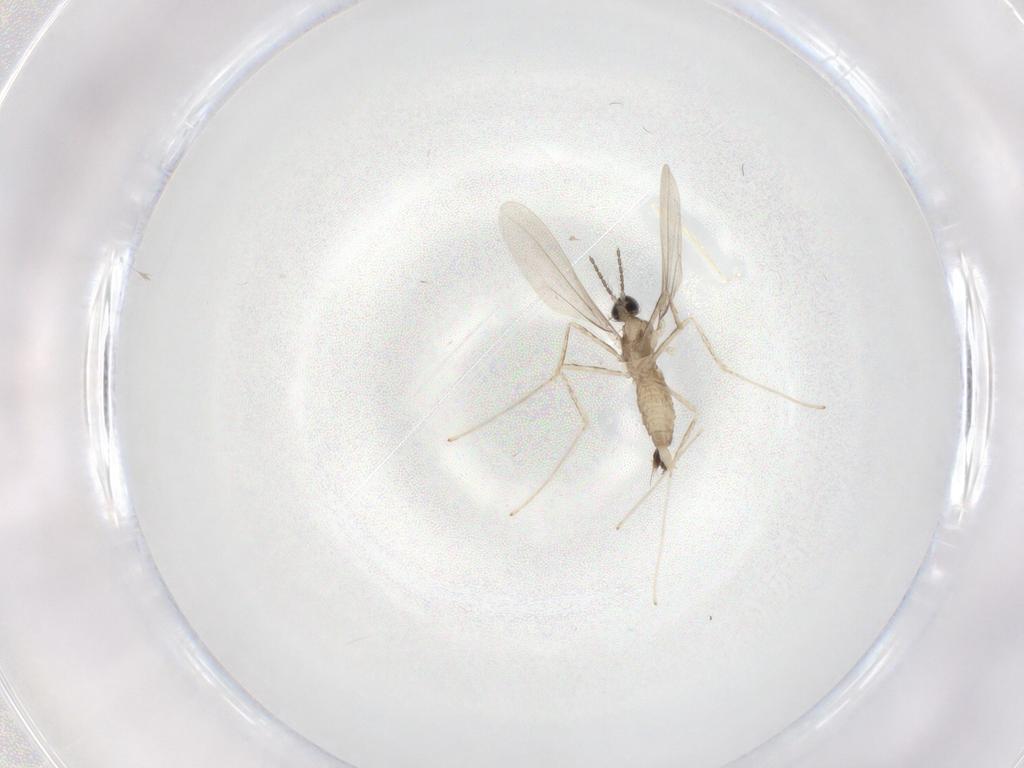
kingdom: Animalia
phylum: Arthropoda
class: Insecta
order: Diptera
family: Cecidomyiidae
